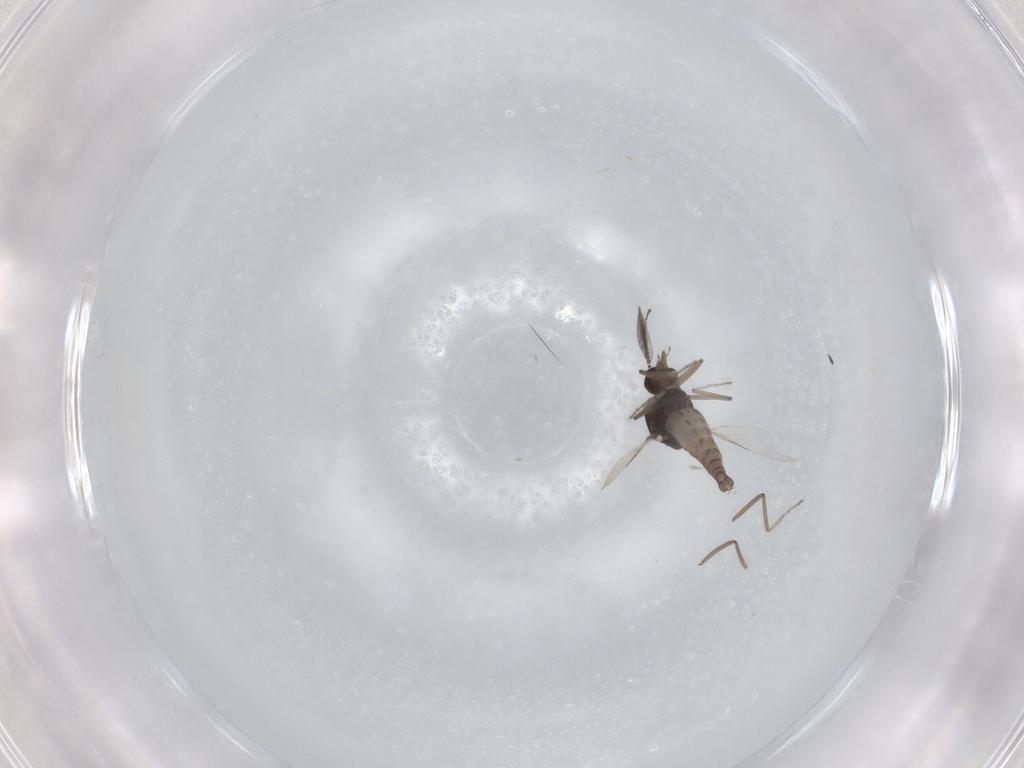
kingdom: Animalia
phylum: Arthropoda
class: Insecta
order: Diptera
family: Ceratopogonidae
